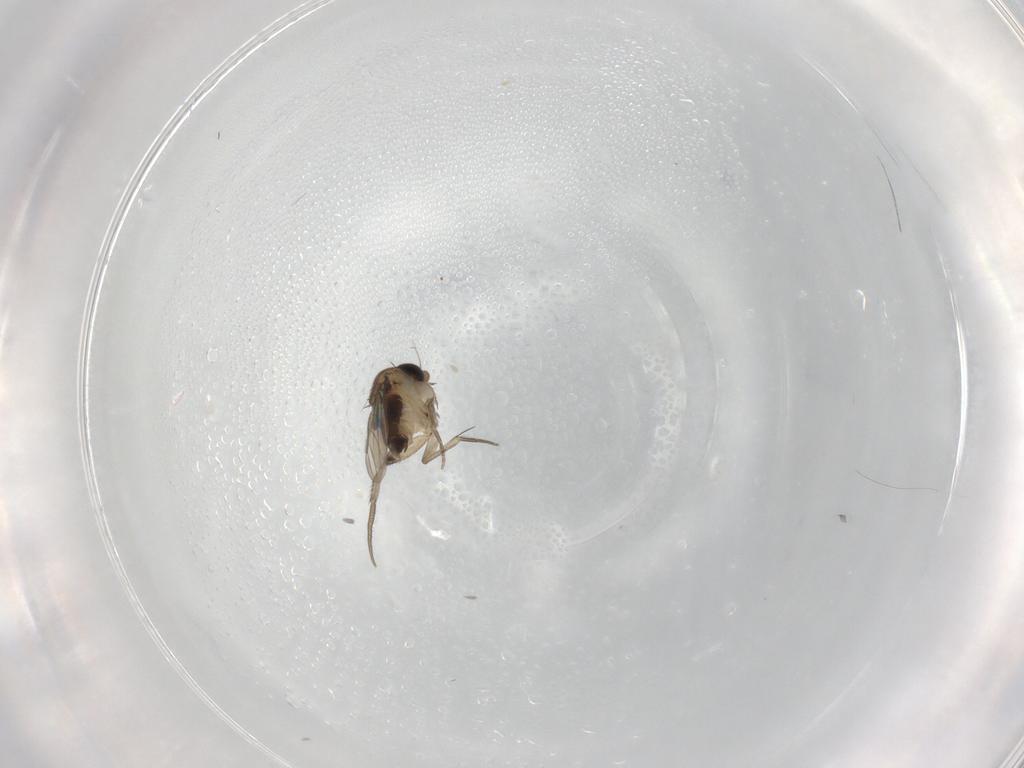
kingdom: Animalia
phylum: Arthropoda
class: Insecta
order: Diptera
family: Phoridae
